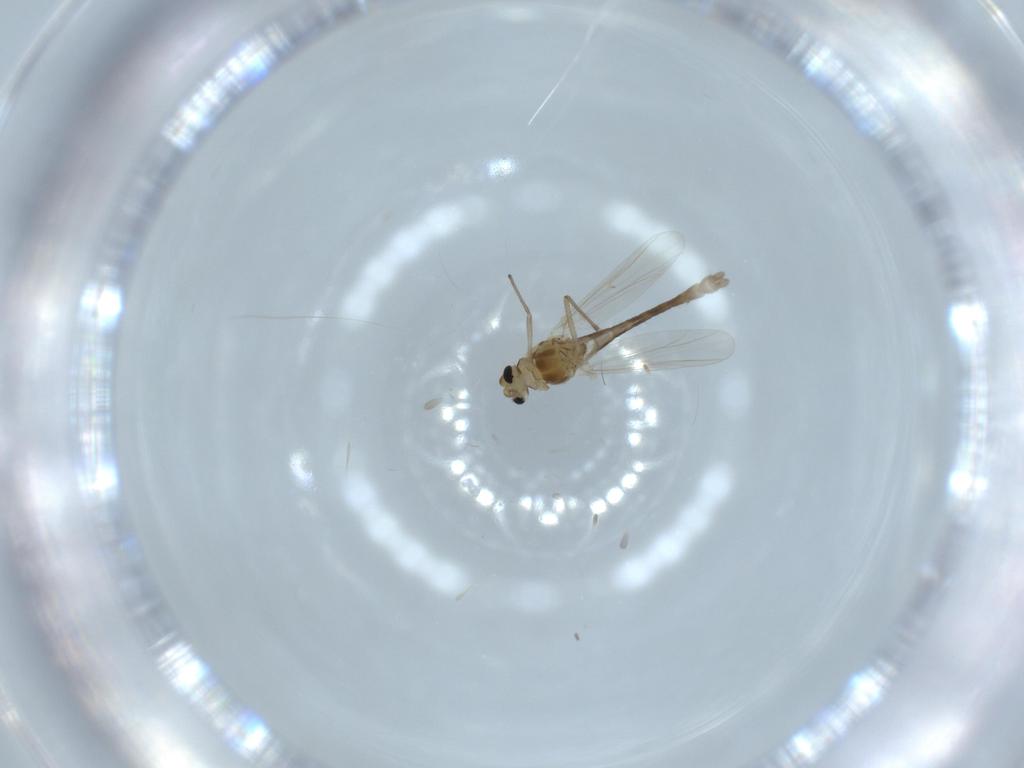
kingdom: Animalia
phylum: Arthropoda
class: Insecta
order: Diptera
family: Chironomidae
